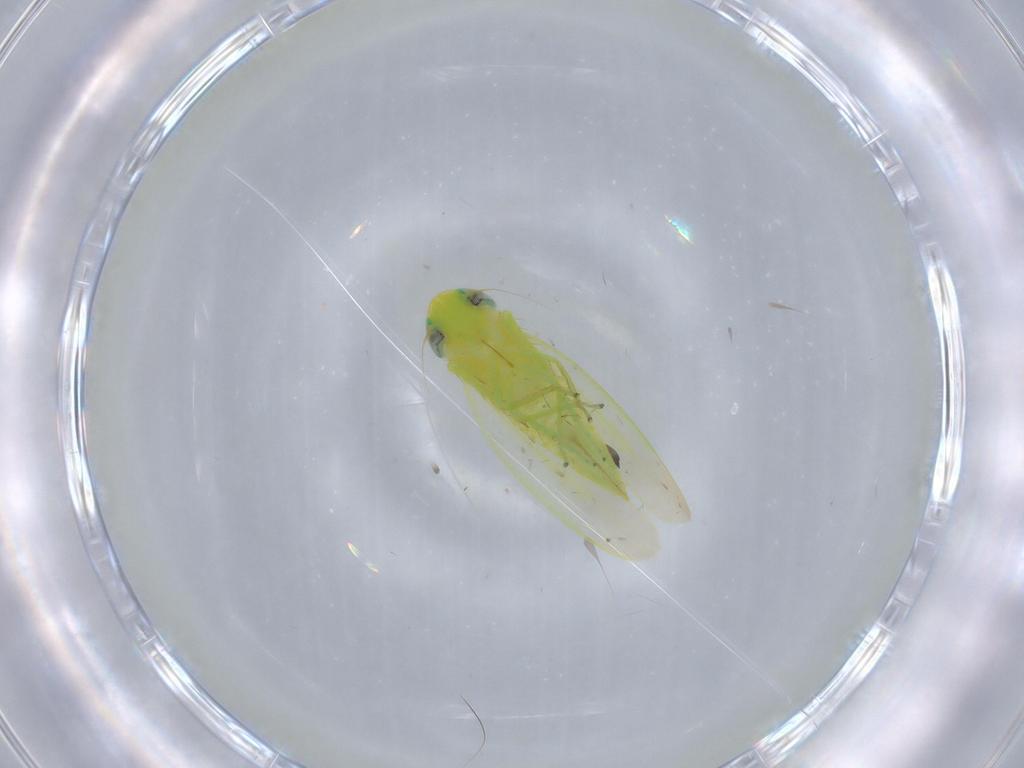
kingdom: Animalia
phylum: Arthropoda
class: Insecta
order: Hemiptera
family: Cicadellidae
